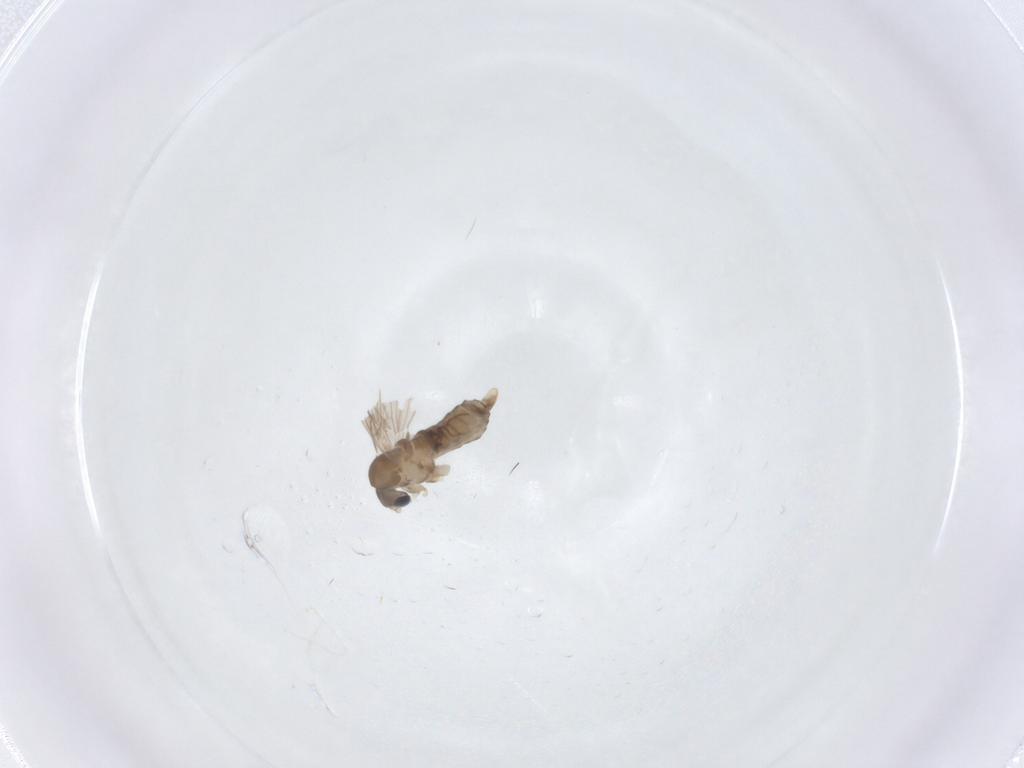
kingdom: Animalia
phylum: Arthropoda
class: Insecta
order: Diptera
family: Psychodidae
